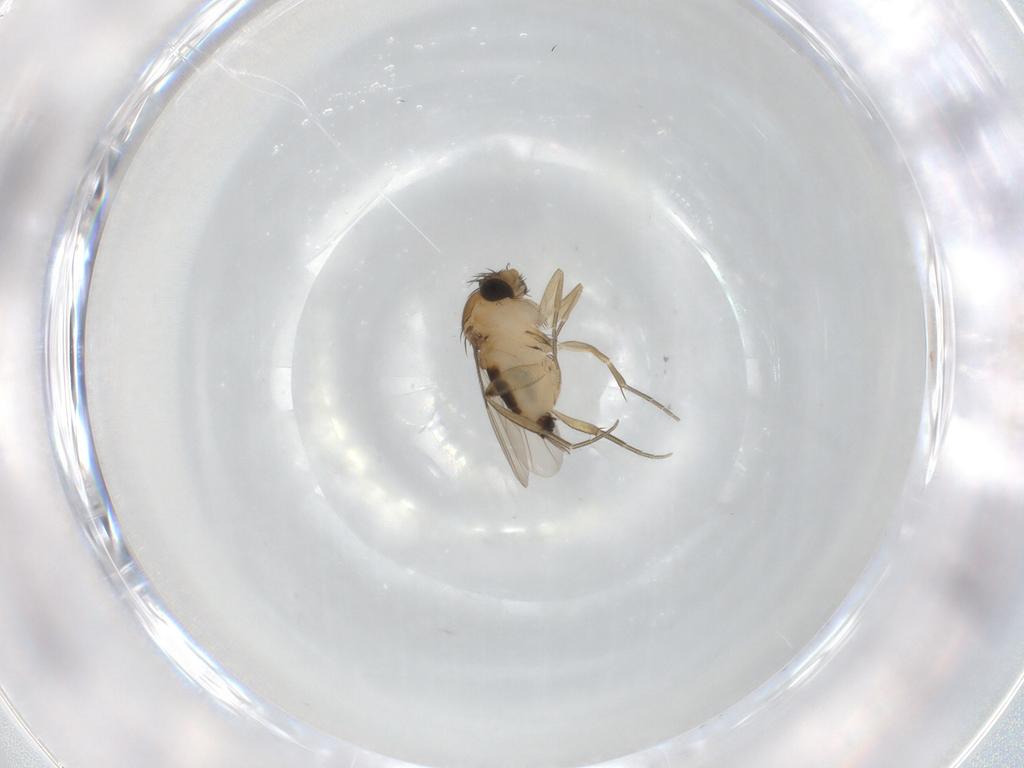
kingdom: Animalia
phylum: Arthropoda
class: Insecta
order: Diptera
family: Phoridae
